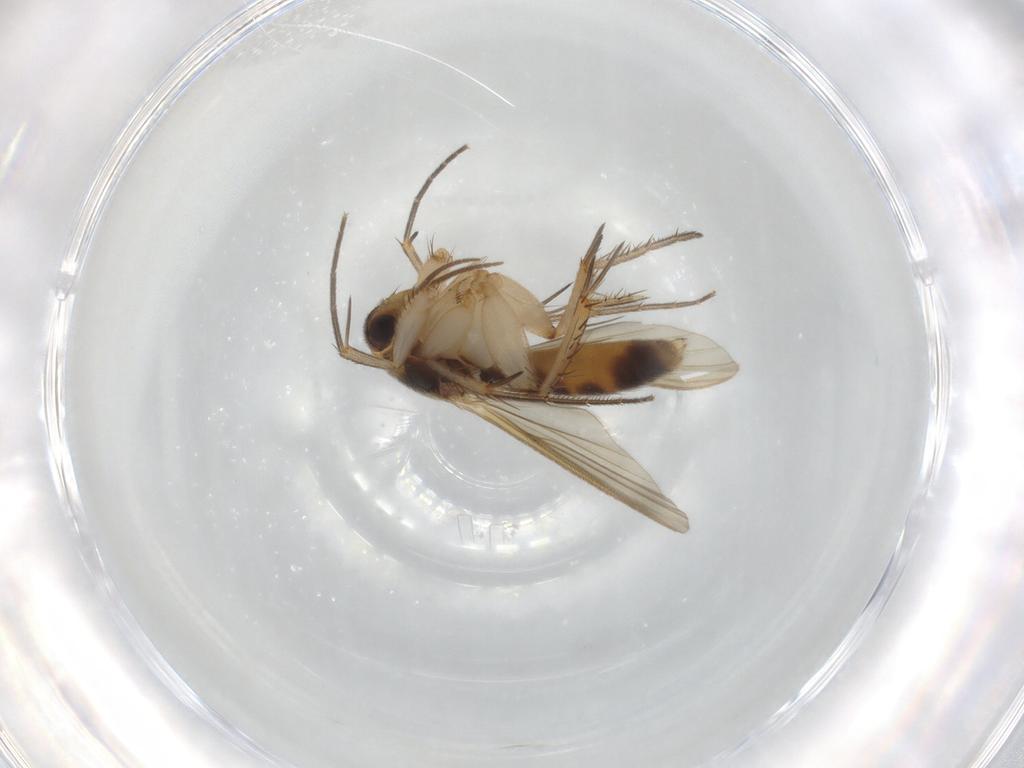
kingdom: Animalia
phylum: Arthropoda
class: Insecta
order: Diptera
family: Mycetophilidae
